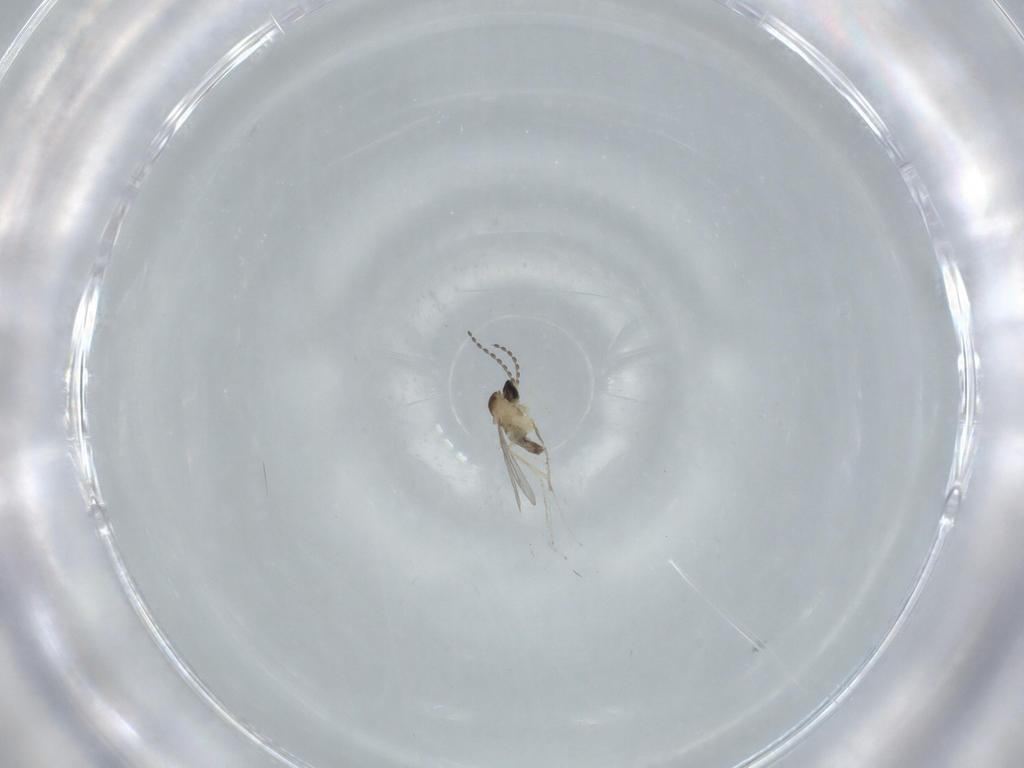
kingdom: Animalia
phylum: Arthropoda
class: Insecta
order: Diptera
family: Cecidomyiidae
